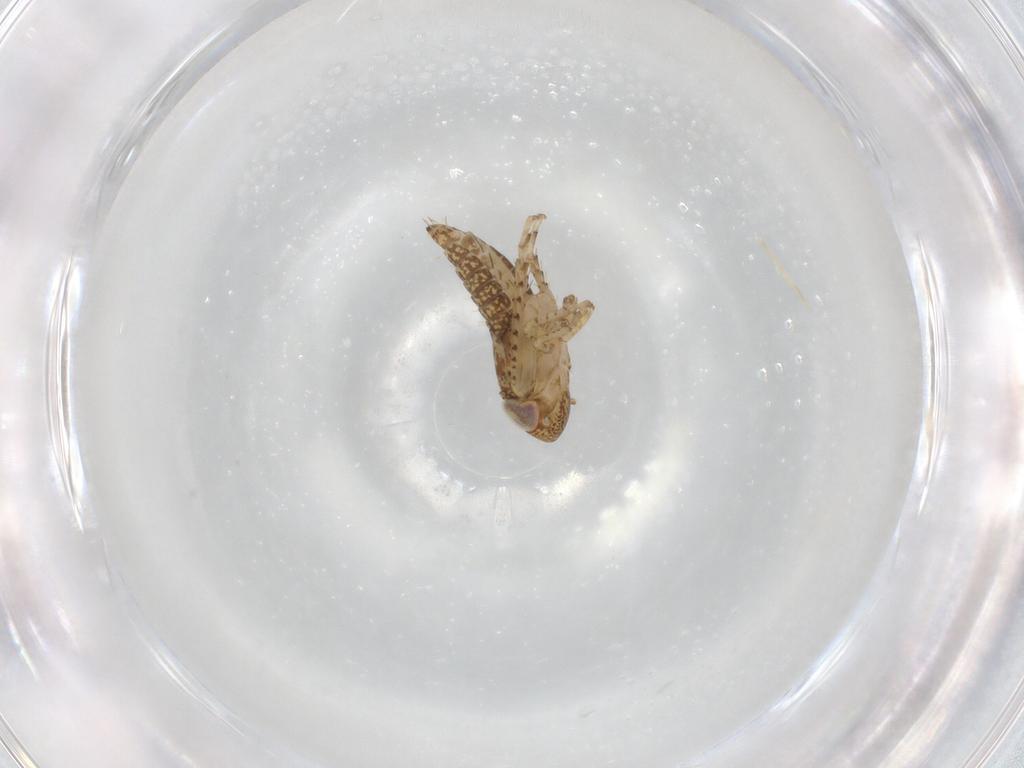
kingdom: Animalia
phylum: Arthropoda
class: Insecta
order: Hemiptera
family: Cicadellidae
